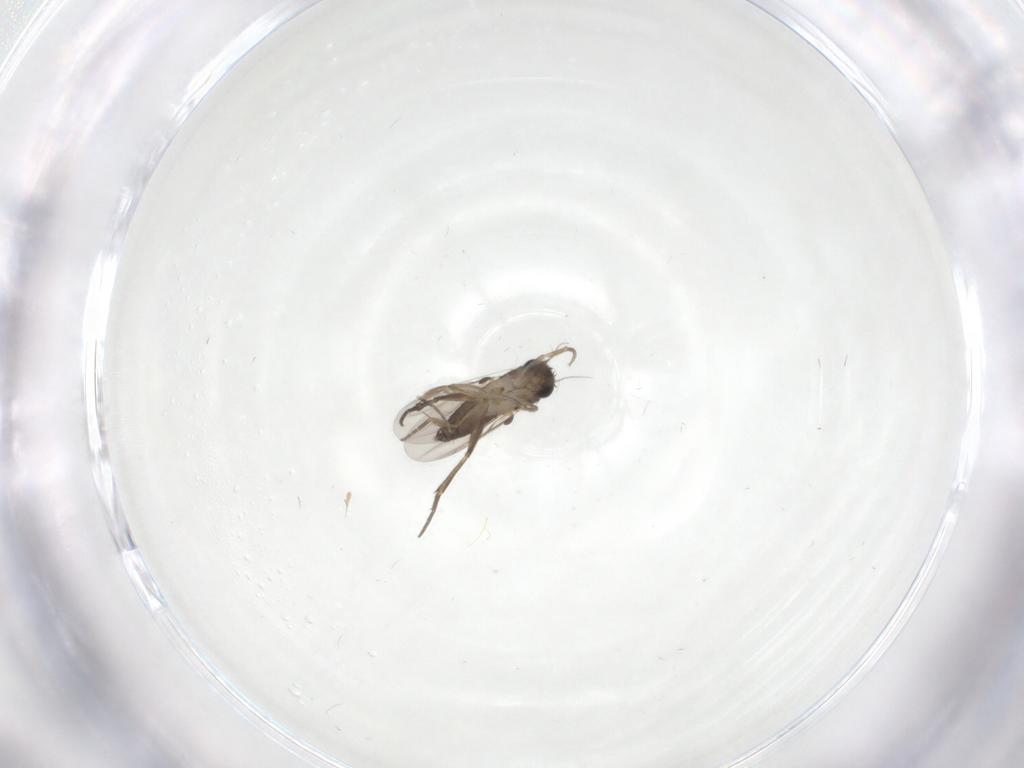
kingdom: Animalia
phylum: Arthropoda
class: Insecta
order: Diptera
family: Phoridae
